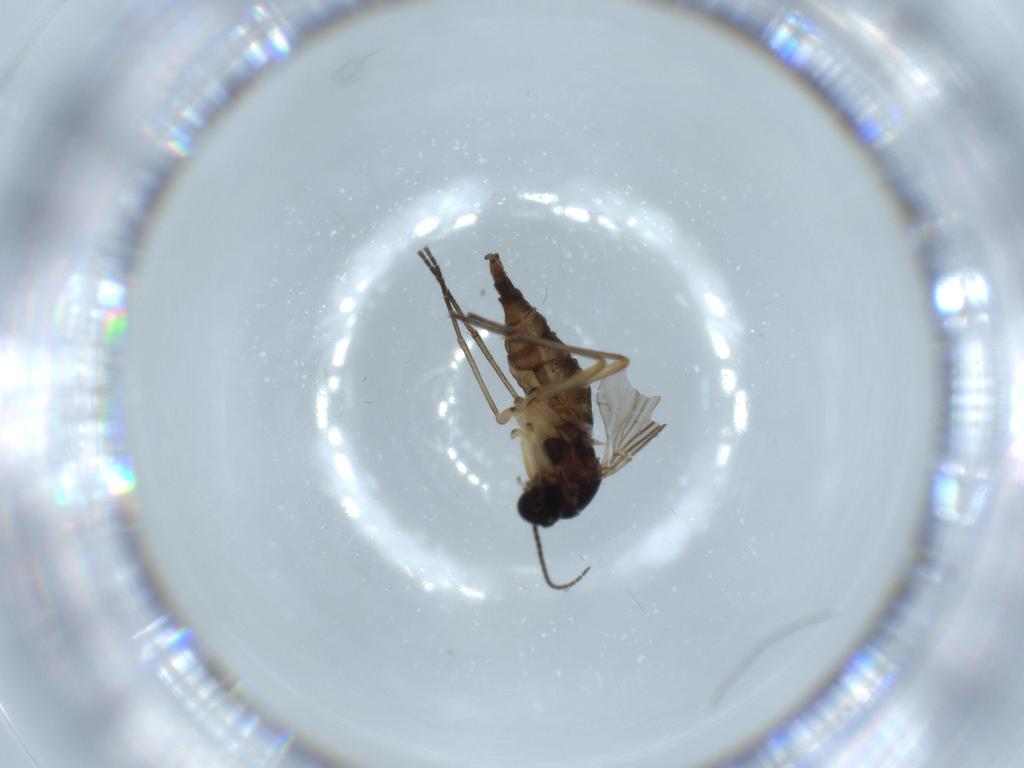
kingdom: Animalia
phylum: Arthropoda
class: Insecta
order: Diptera
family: Sciaridae
